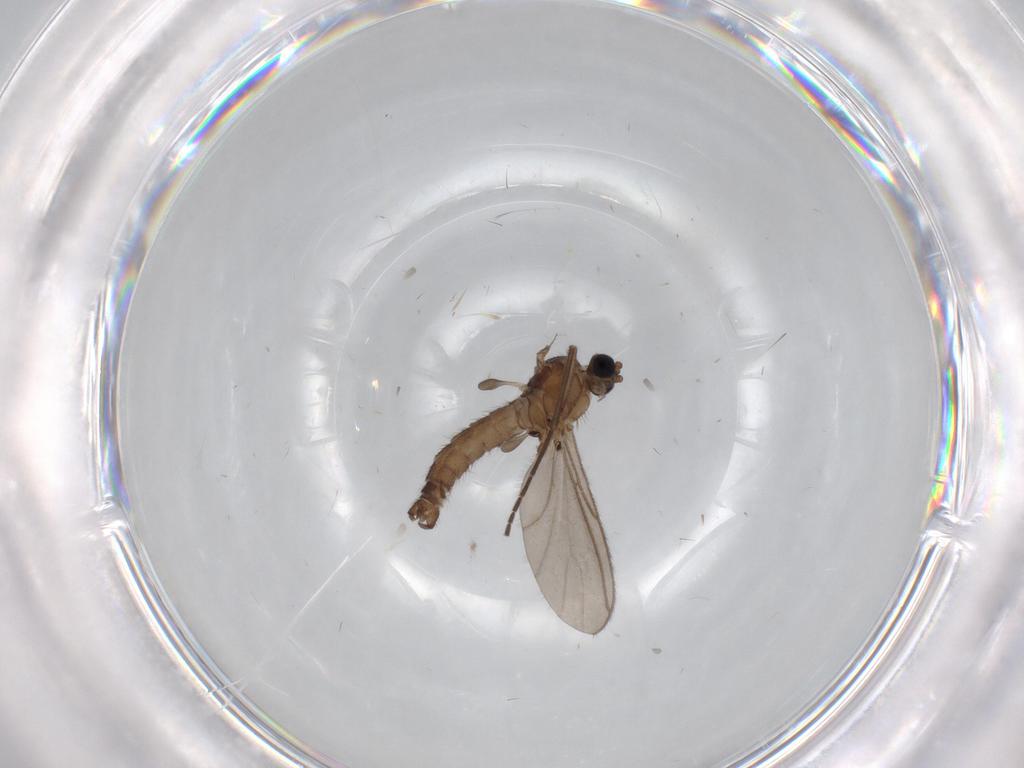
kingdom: Animalia
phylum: Arthropoda
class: Insecta
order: Diptera
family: Sciaridae
